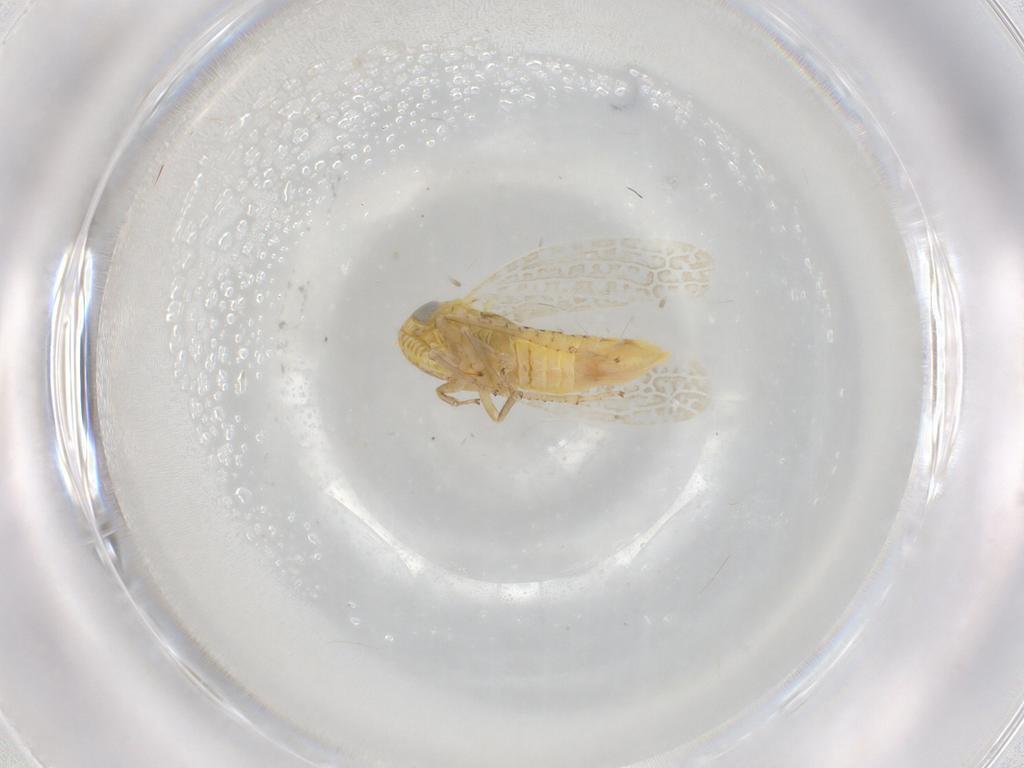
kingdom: Animalia
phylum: Arthropoda
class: Insecta
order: Hemiptera
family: Cicadellidae
